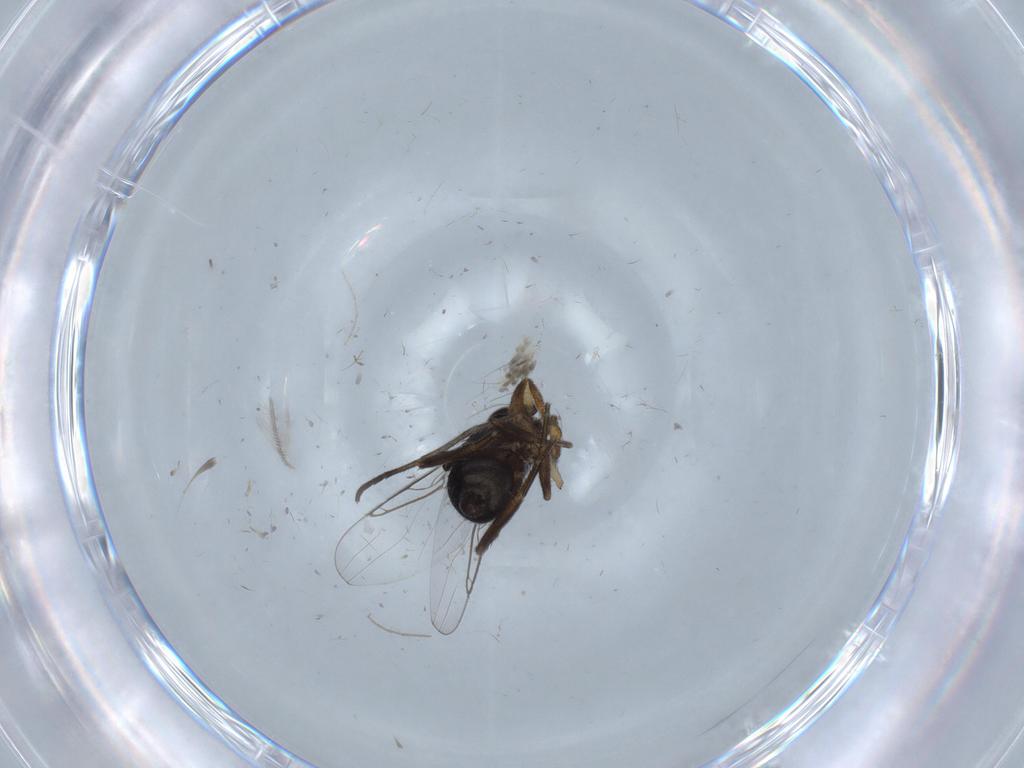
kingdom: Animalia
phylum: Arthropoda
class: Insecta
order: Diptera
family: Phoridae
